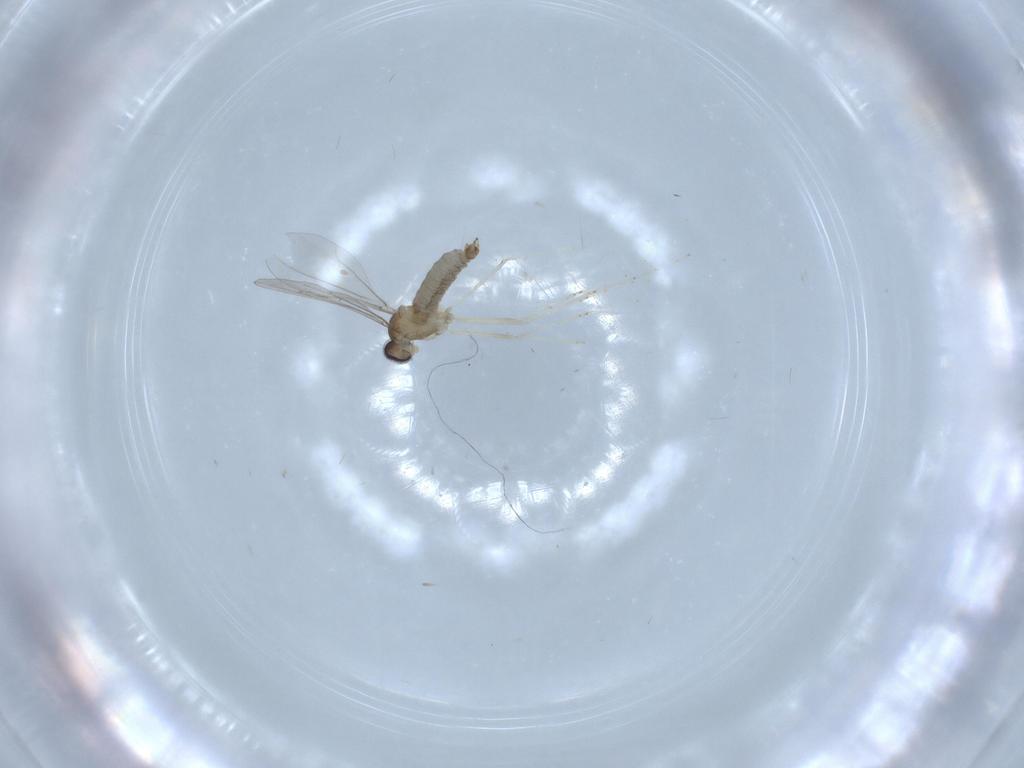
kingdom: Animalia
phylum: Arthropoda
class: Insecta
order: Diptera
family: Cecidomyiidae
